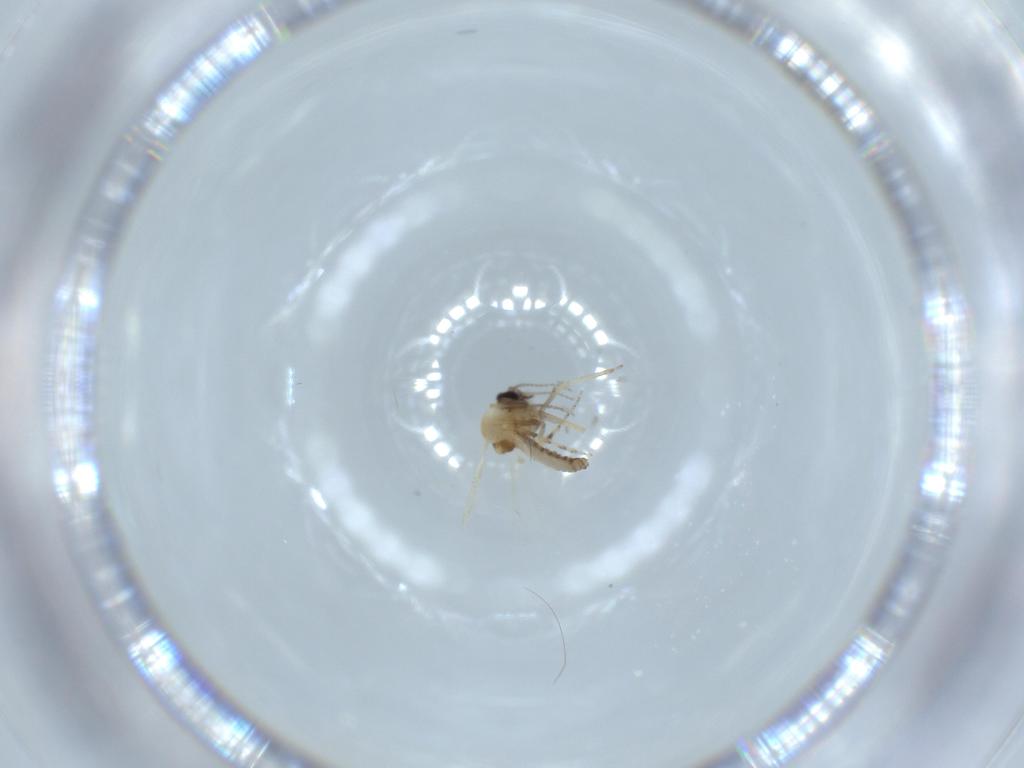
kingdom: Animalia
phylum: Arthropoda
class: Insecta
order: Diptera
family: Ceratopogonidae
